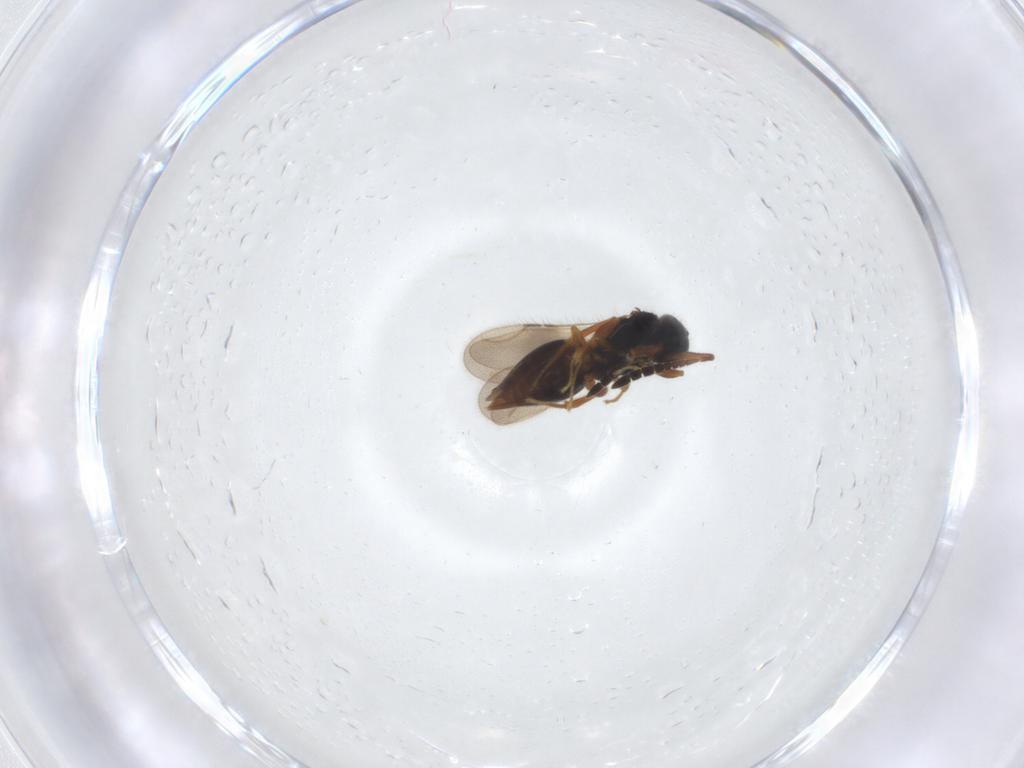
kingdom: Animalia
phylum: Arthropoda
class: Insecta
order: Hymenoptera
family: Ceraphronidae
